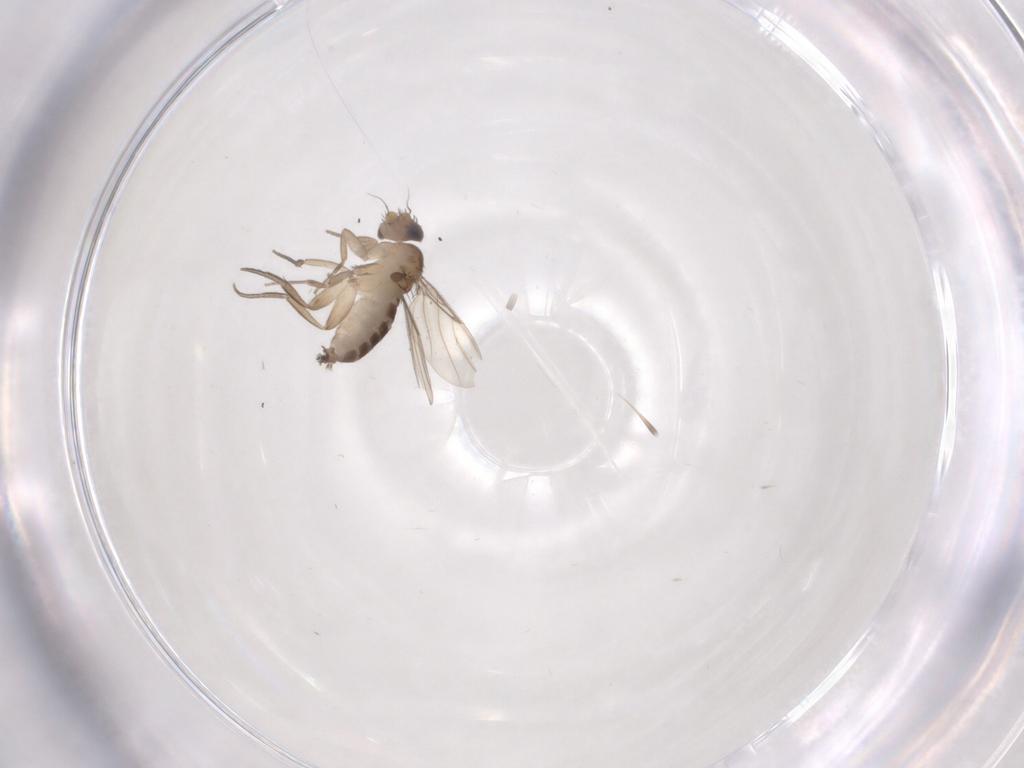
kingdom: Animalia
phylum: Arthropoda
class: Insecta
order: Diptera
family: Phoridae
